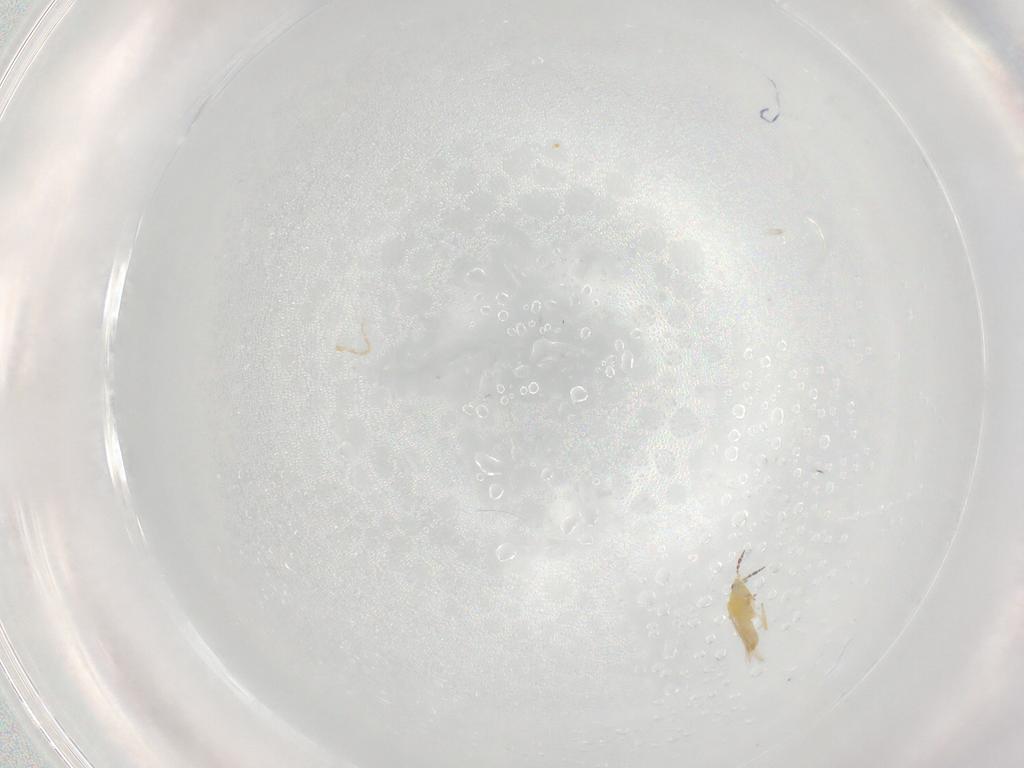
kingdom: Animalia
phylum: Arthropoda
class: Insecta
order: Thysanoptera
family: Melanthripidae
